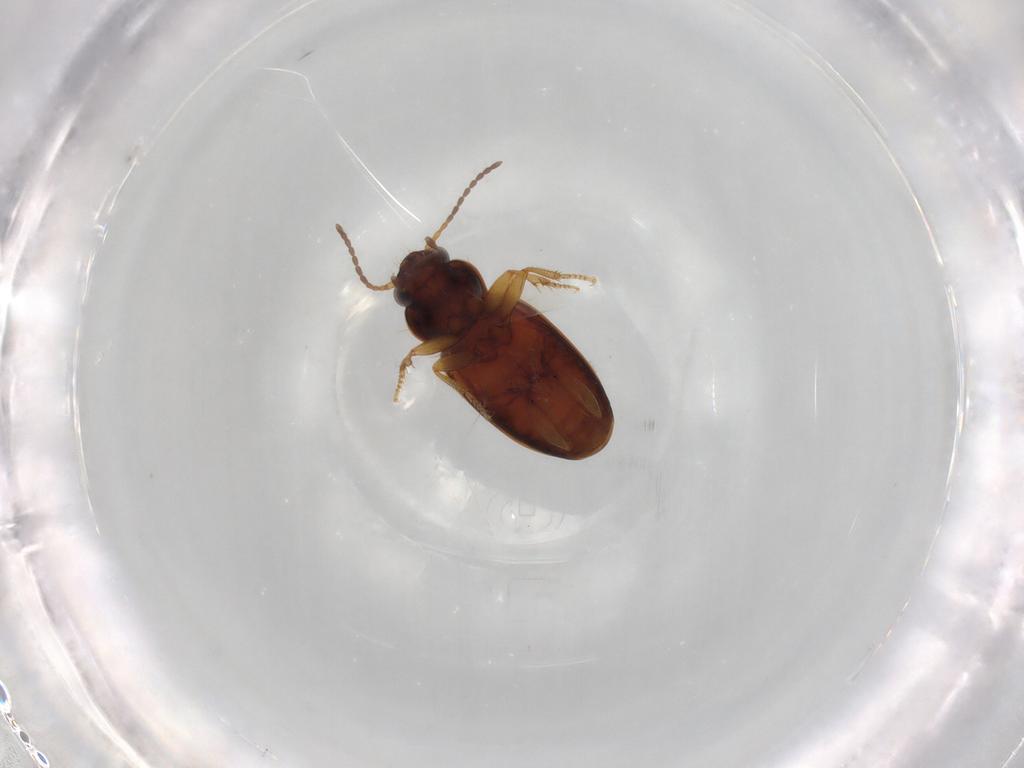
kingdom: Animalia
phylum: Arthropoda
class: Insecta
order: Coleoptera
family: Carabidae
